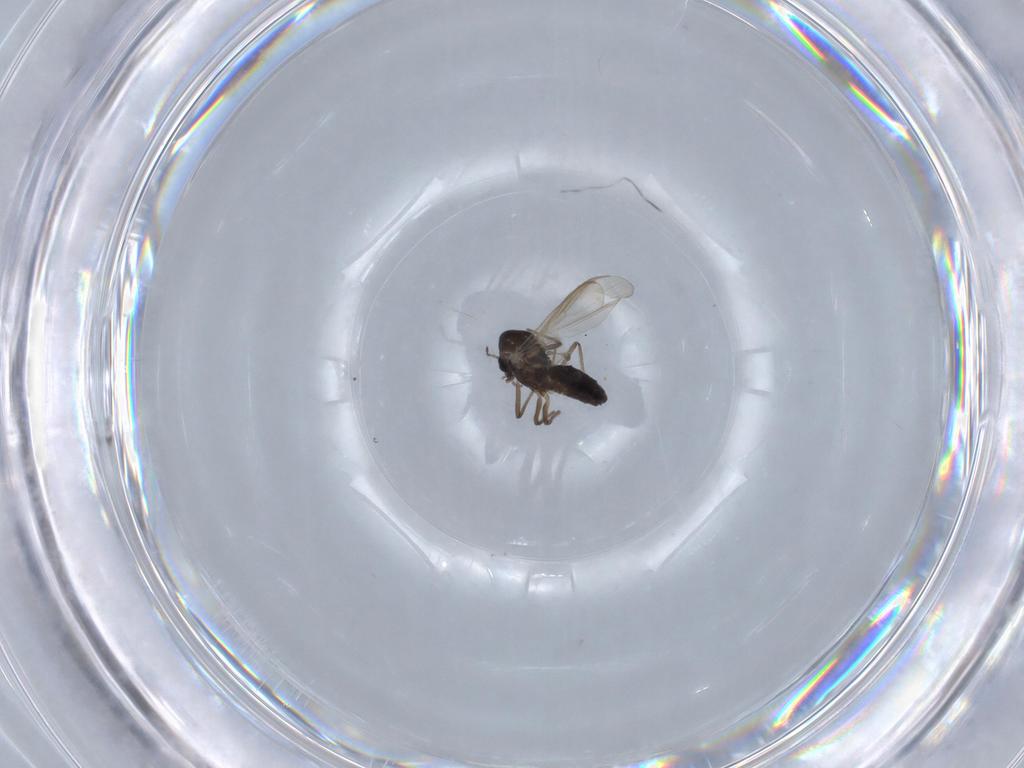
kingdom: Animalia
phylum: Arthropoda
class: Insecta
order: Diptera
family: Chironomidae
